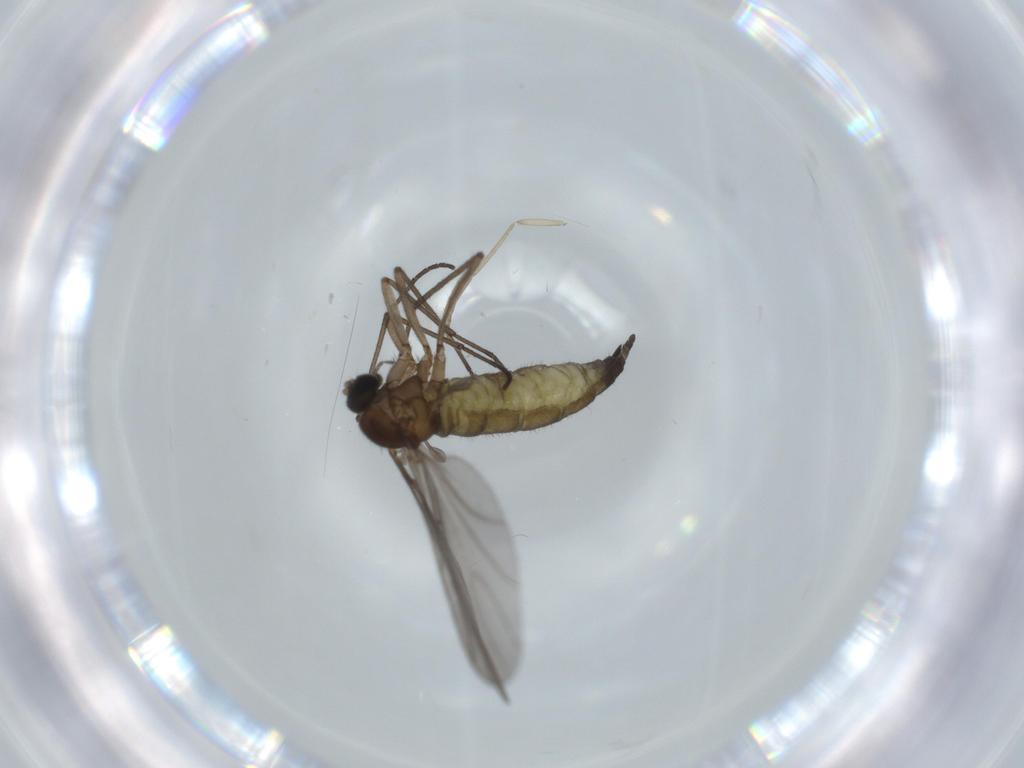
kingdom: Animalia
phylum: Arthropoda
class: Insecta
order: Diptera
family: Sciaridae
